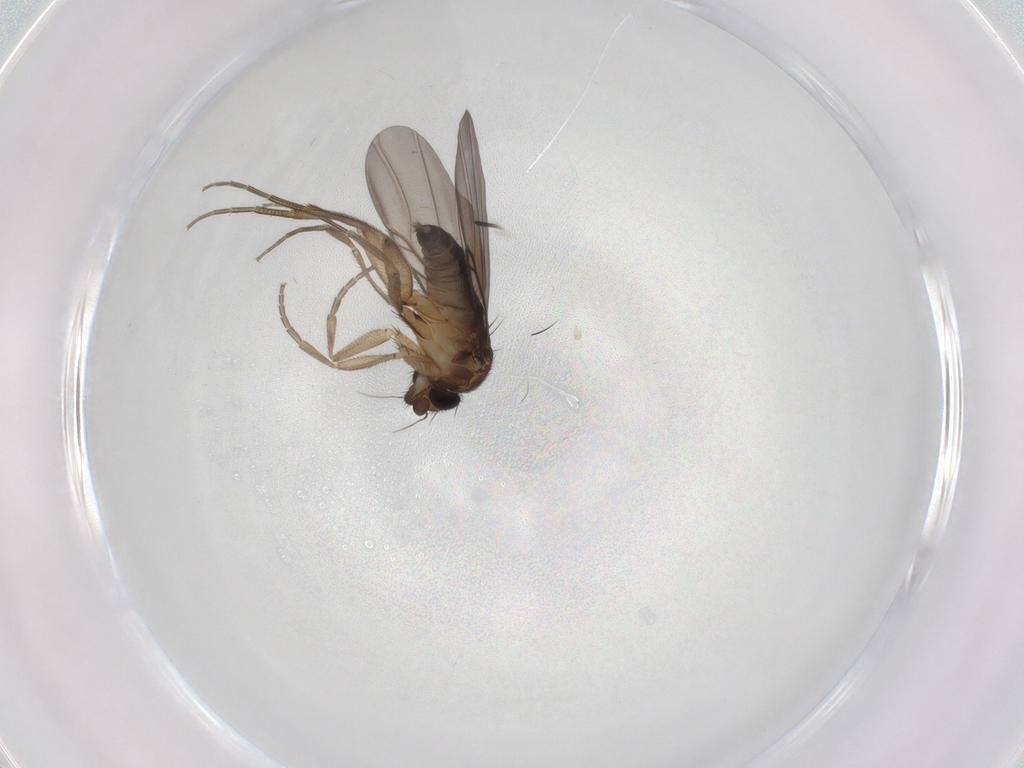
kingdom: Animalia
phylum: Arthropoda
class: Insecta
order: Diptera
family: Phoridae
